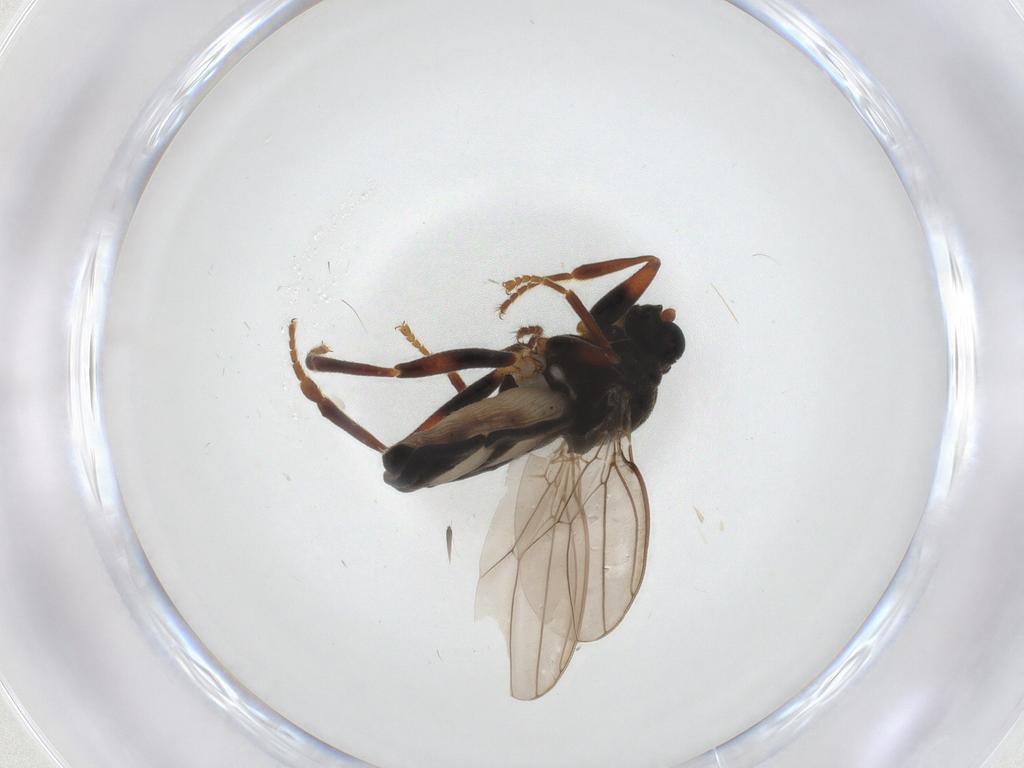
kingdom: Animalia
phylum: Arthropoda
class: Insecta
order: Diptera
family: Sphaeroceridae
